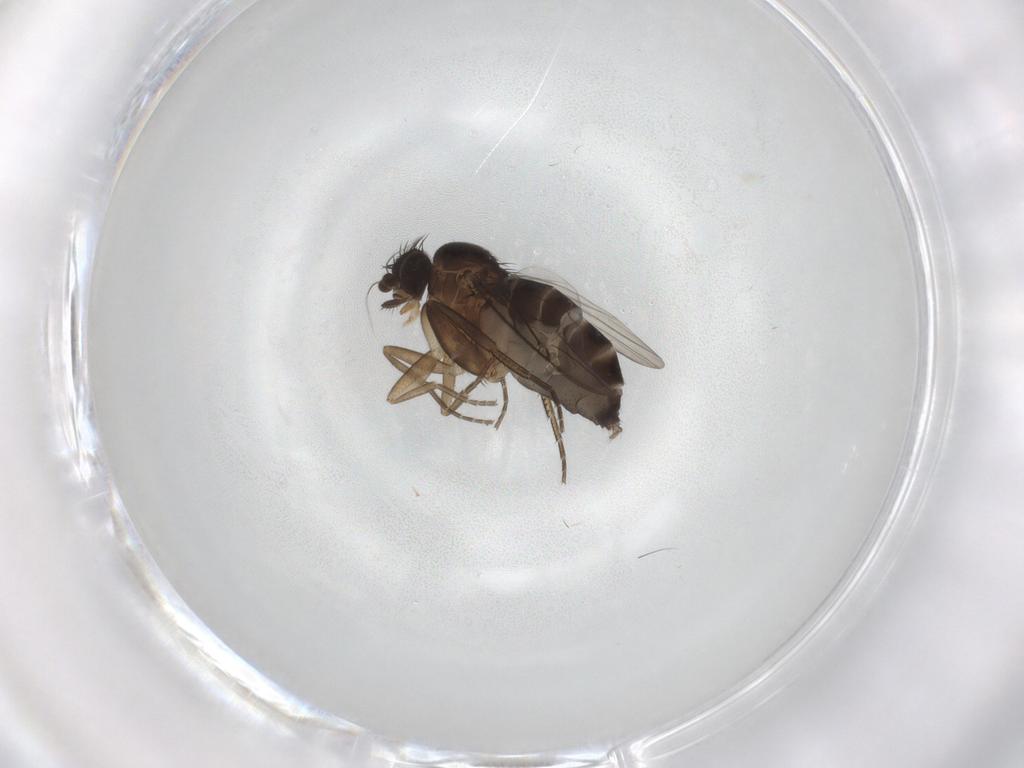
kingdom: Animalia
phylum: Arthropoda
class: Insecta
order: Diptera
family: Phoridae
